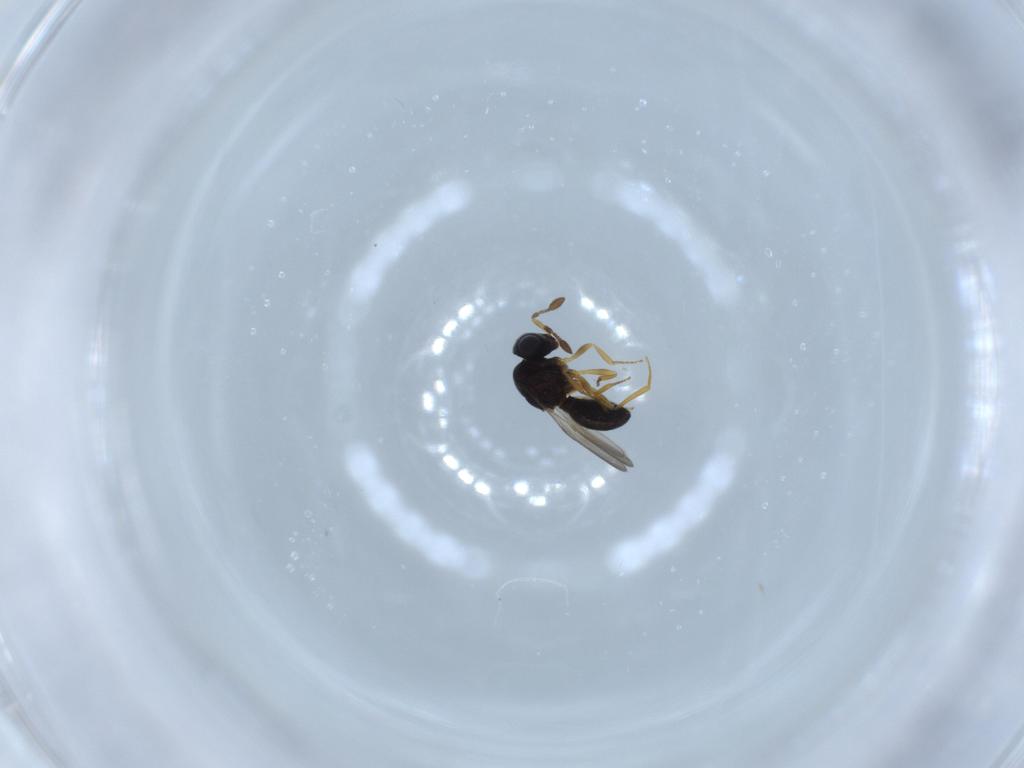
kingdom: Animalia
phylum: Arthropoda
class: Insecta
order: Hymenoptera
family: Scelionidae
